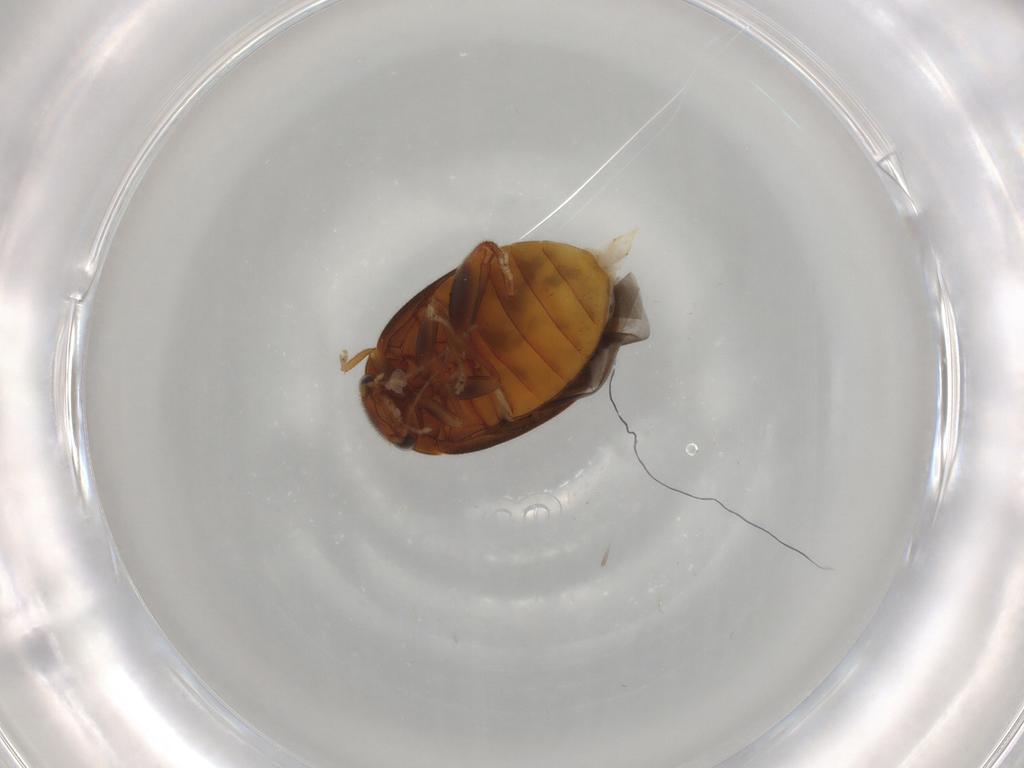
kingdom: Animalia
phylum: Arthropoda
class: Insecta
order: Coleoptera
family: Scirtidae
